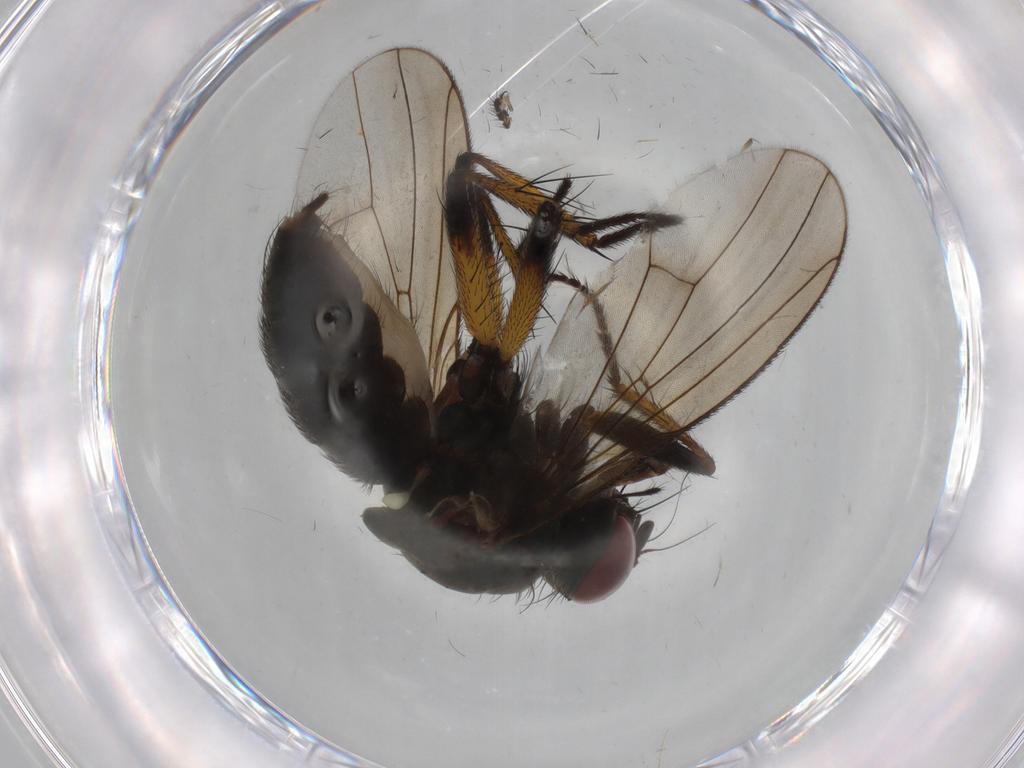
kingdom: Animalia
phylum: Arthropoda
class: Insecta
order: Diptera
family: Muscidae
